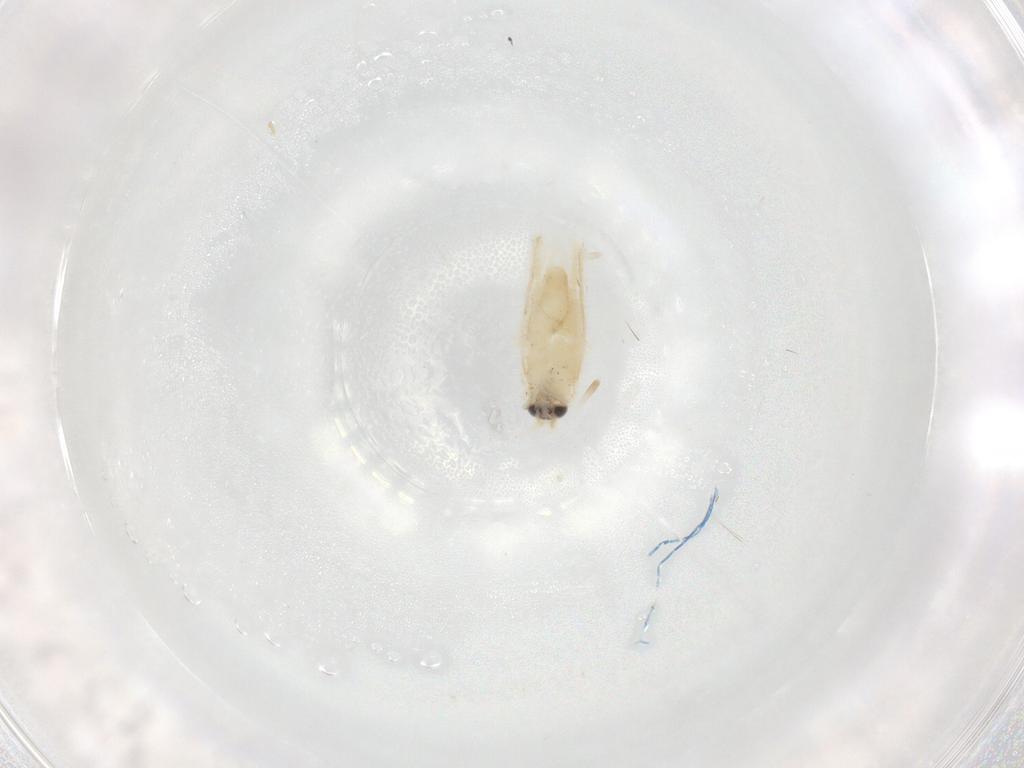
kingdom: Animalia
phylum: Arthropoda
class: Insecta
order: Lepidoptera
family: Nepticulidae
